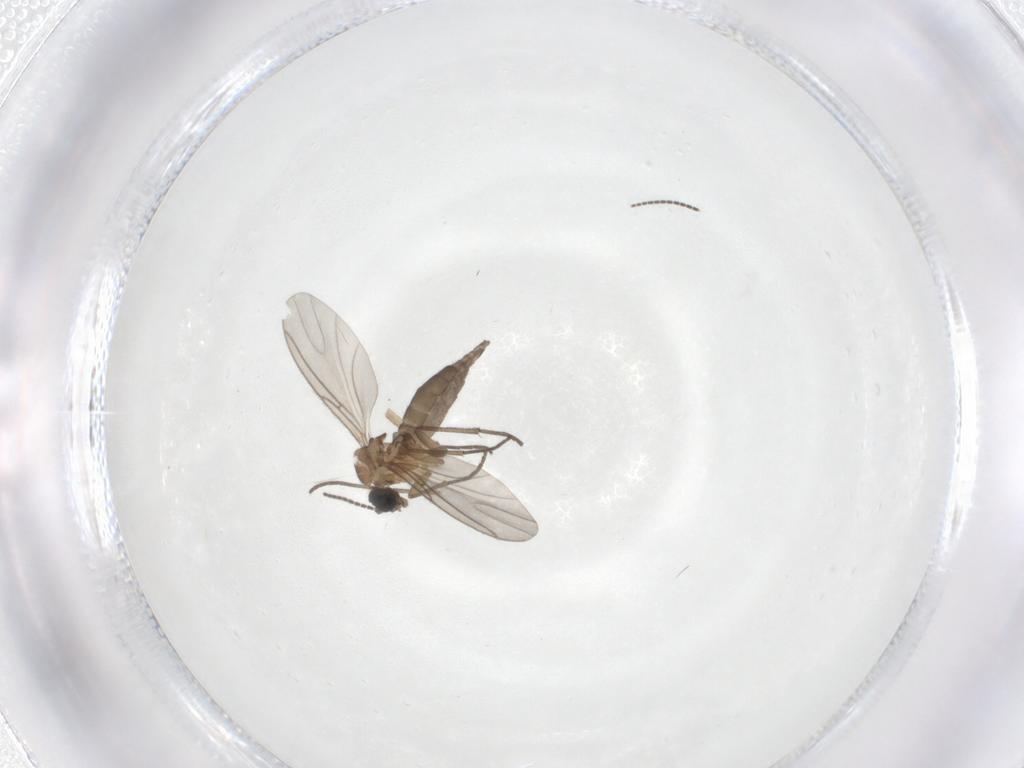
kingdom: Animalia
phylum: Arthropoda
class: Insecta
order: Diptera
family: Sciaridae
